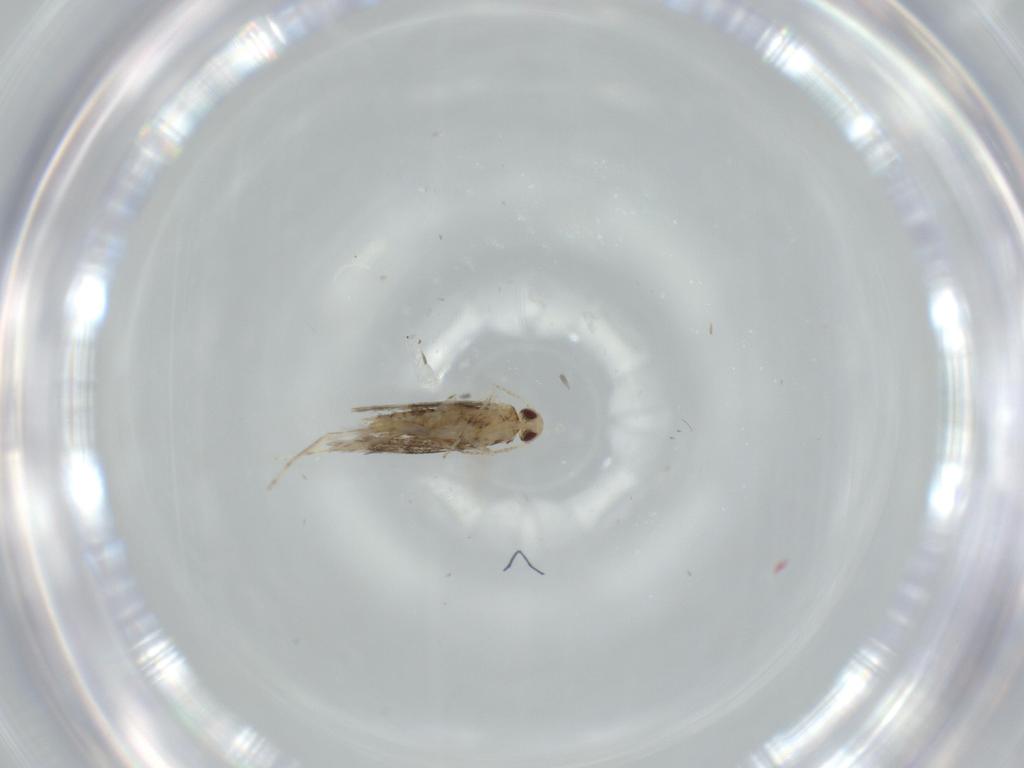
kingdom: Animalia
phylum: Arthropoda
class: Insecta
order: Lepidoptera
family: Gracillariidae
